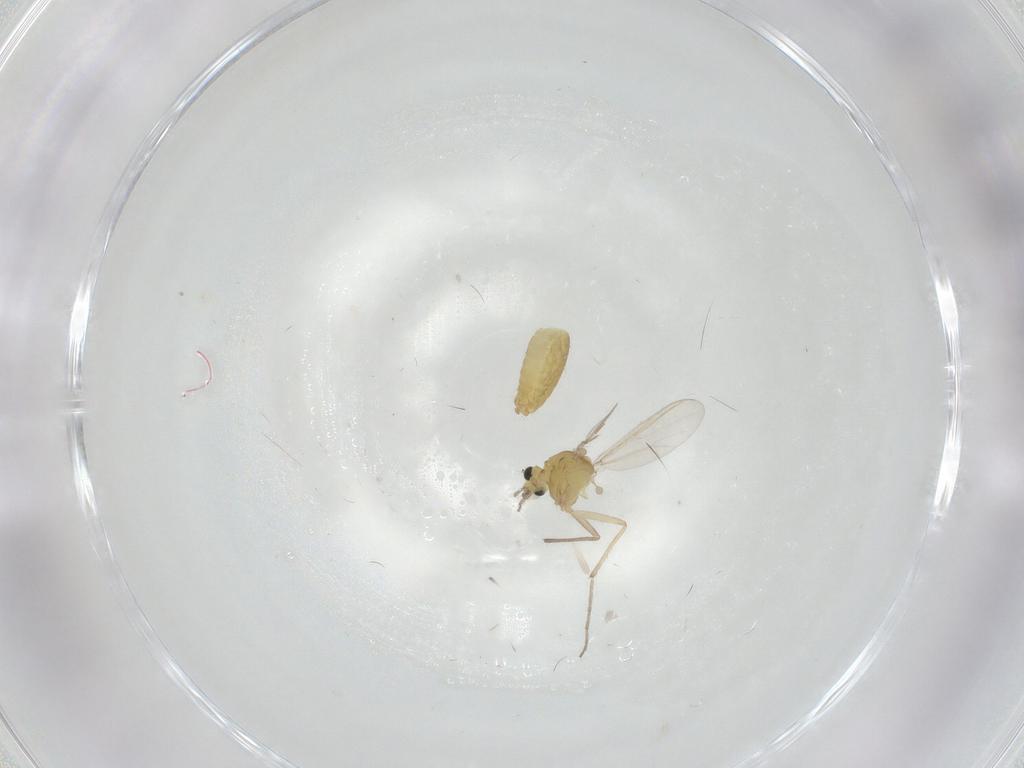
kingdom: Animalia
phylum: Arthropoda
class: Insecta
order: Diptera
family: Chironomidae
